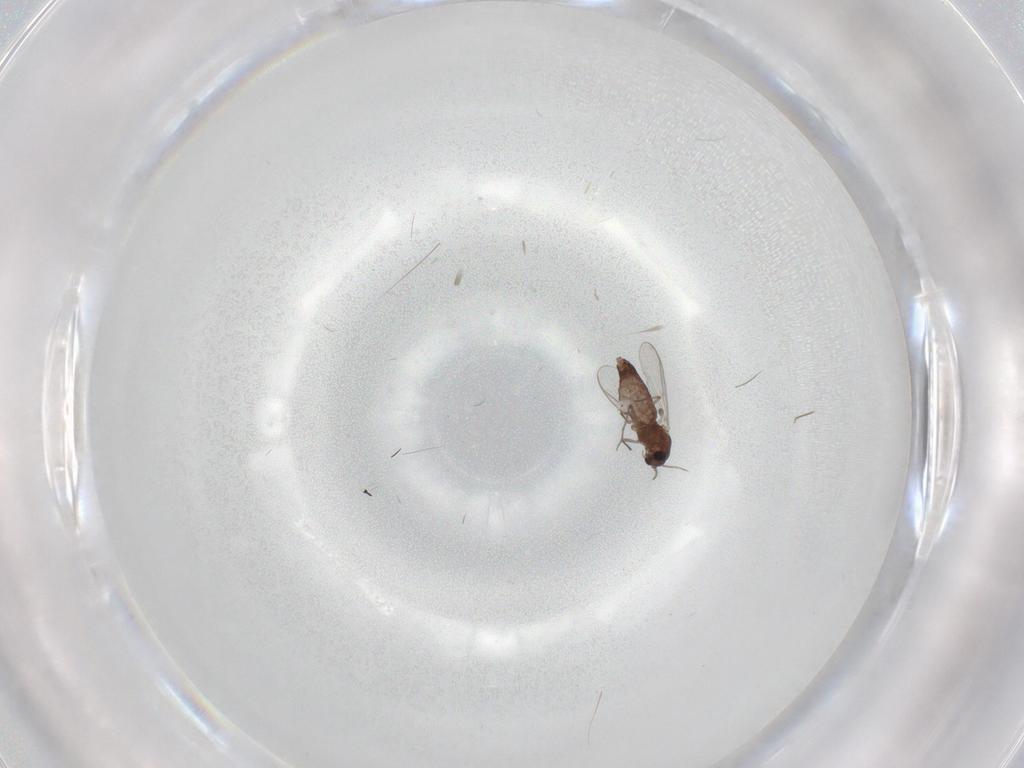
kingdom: Animalia
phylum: Arthropoda
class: Insecta
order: Diptera
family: Chironomidae
